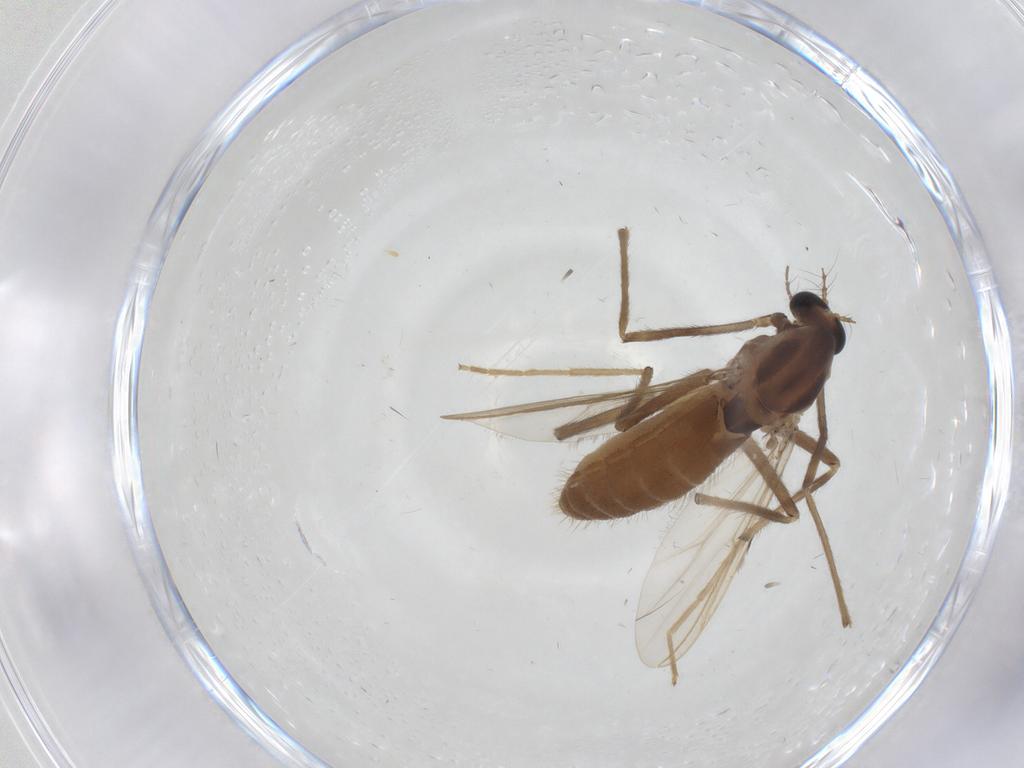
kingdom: Animalia
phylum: Arthropoda
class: Insecta
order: Diptera
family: Chironomidae
